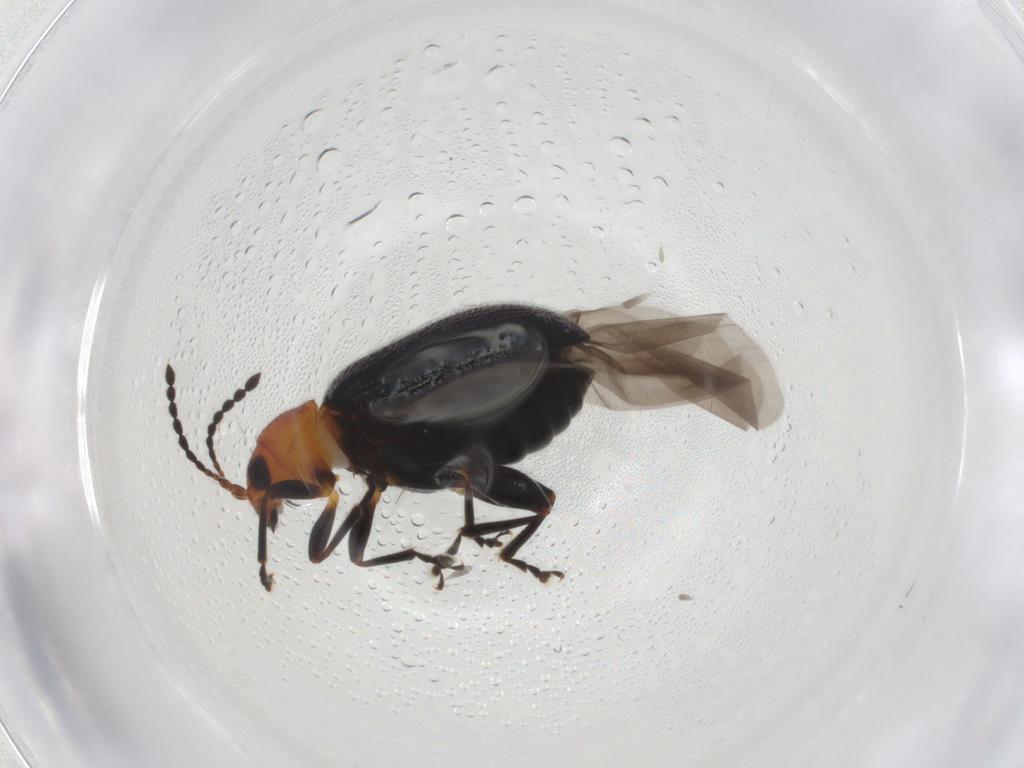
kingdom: Animalia
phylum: Arthropoda
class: Insecta
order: Coleoptera
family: Chrysomelidae
